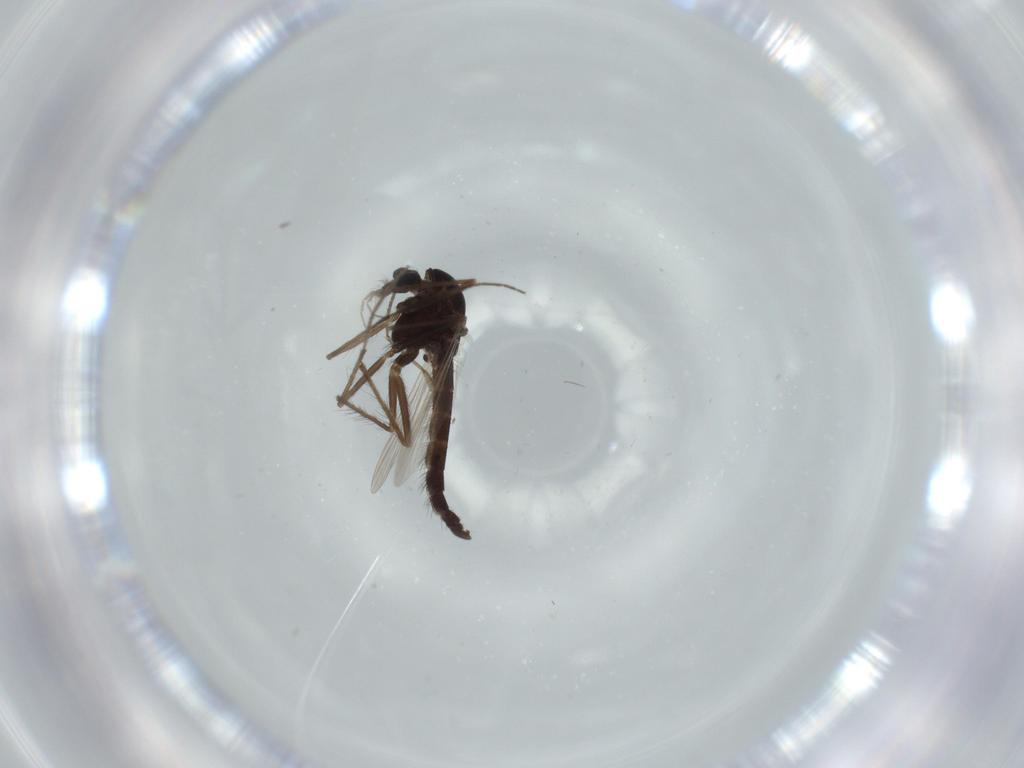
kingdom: Animalia
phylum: Arthropoda
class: Insecta
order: Diptera
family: Chironomidae
